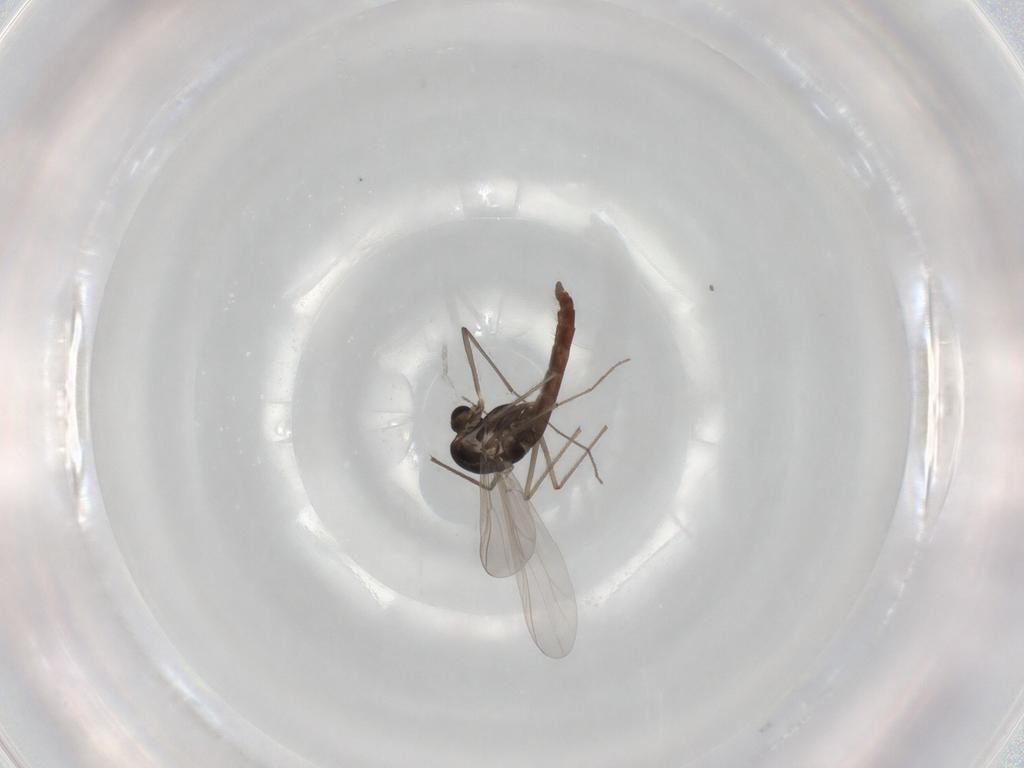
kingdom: Animalia
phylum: Arthropoda
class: Insecta
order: Diptera
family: Chironomidae
